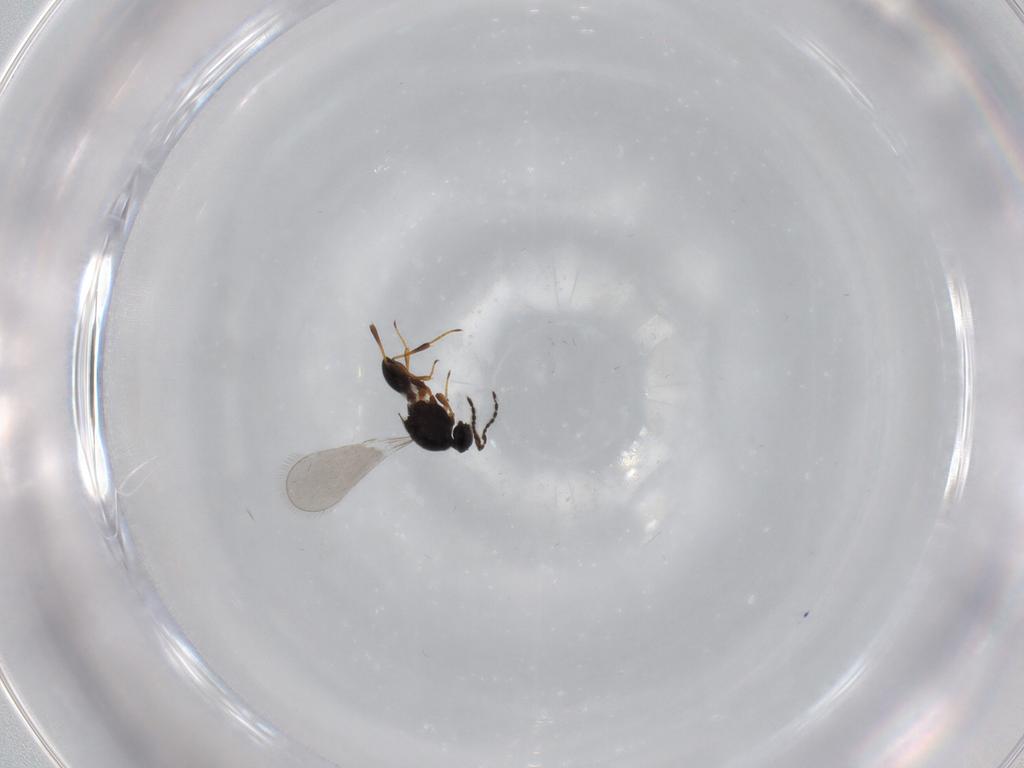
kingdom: Animalia
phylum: Arthropoda
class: Insecta
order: Hymenoptera
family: Platygastridae
